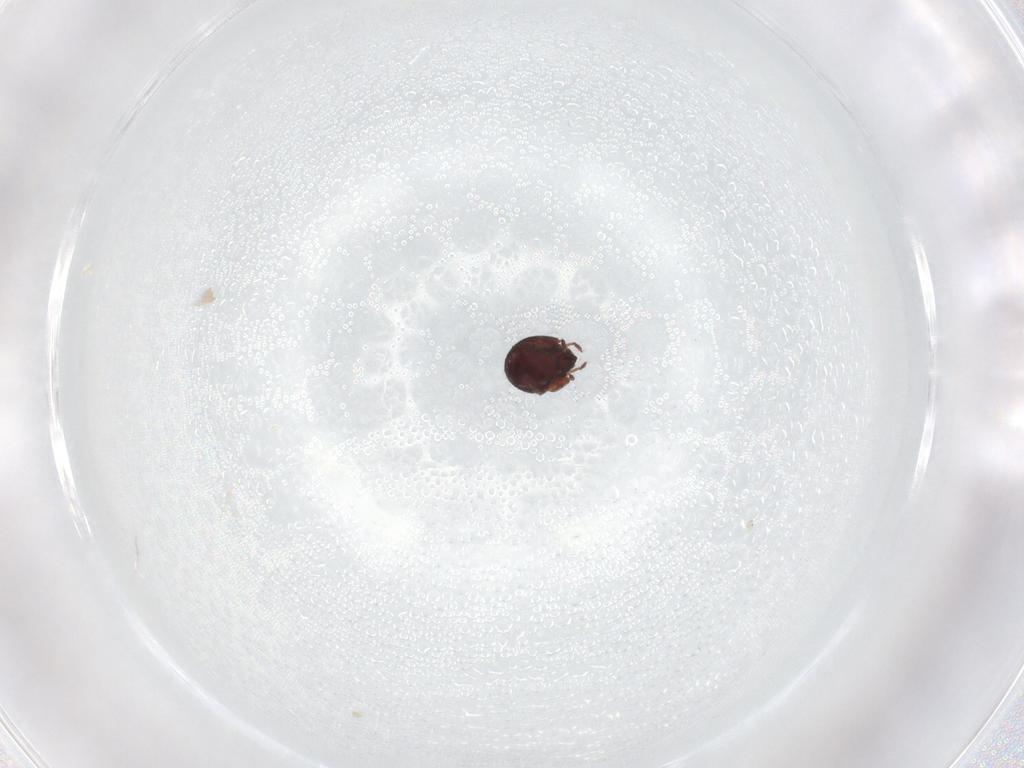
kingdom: Animalia
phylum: Arthropoda
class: Arachnida
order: Sarcoptiformes
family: Humerobatidae
